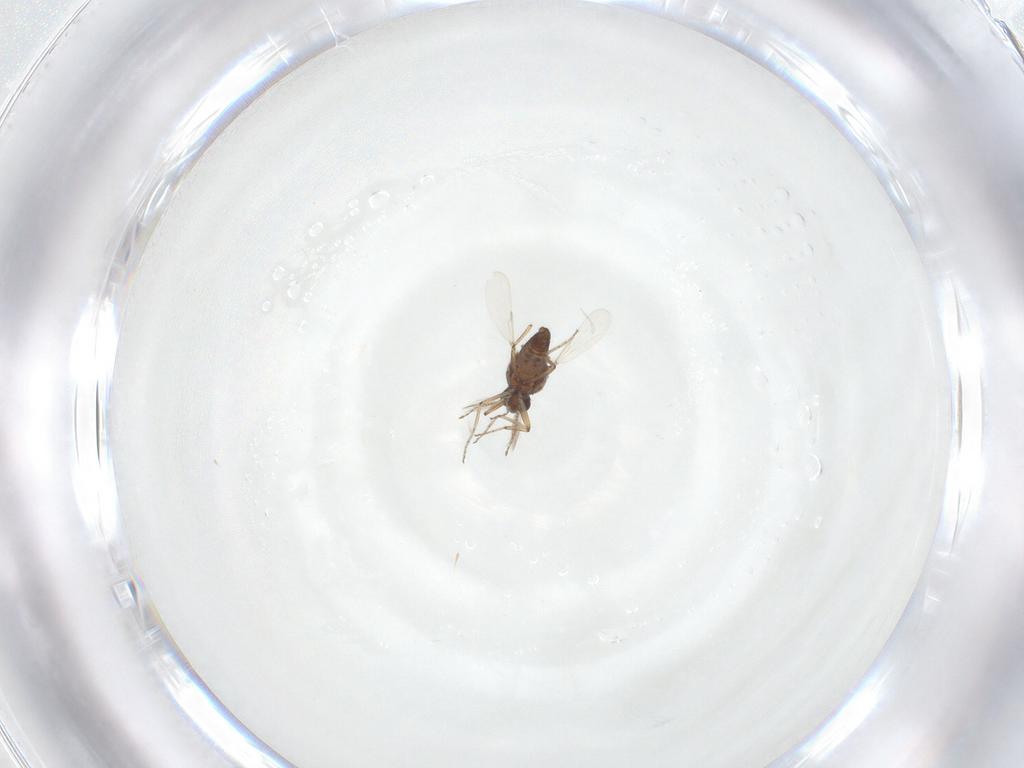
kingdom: Animalia
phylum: Arthropoda
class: Insecta
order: Diptera
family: Ceratopogonidae
